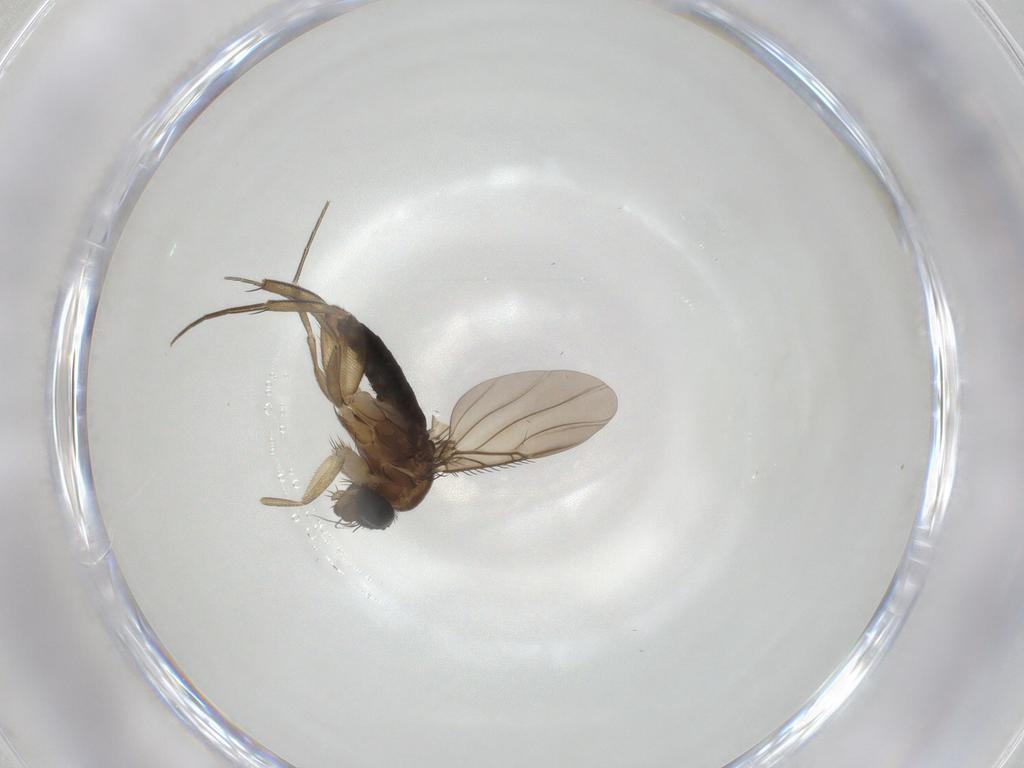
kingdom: Animalia
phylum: Arthropoda
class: Insecta
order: Diptera
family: Phoridae
